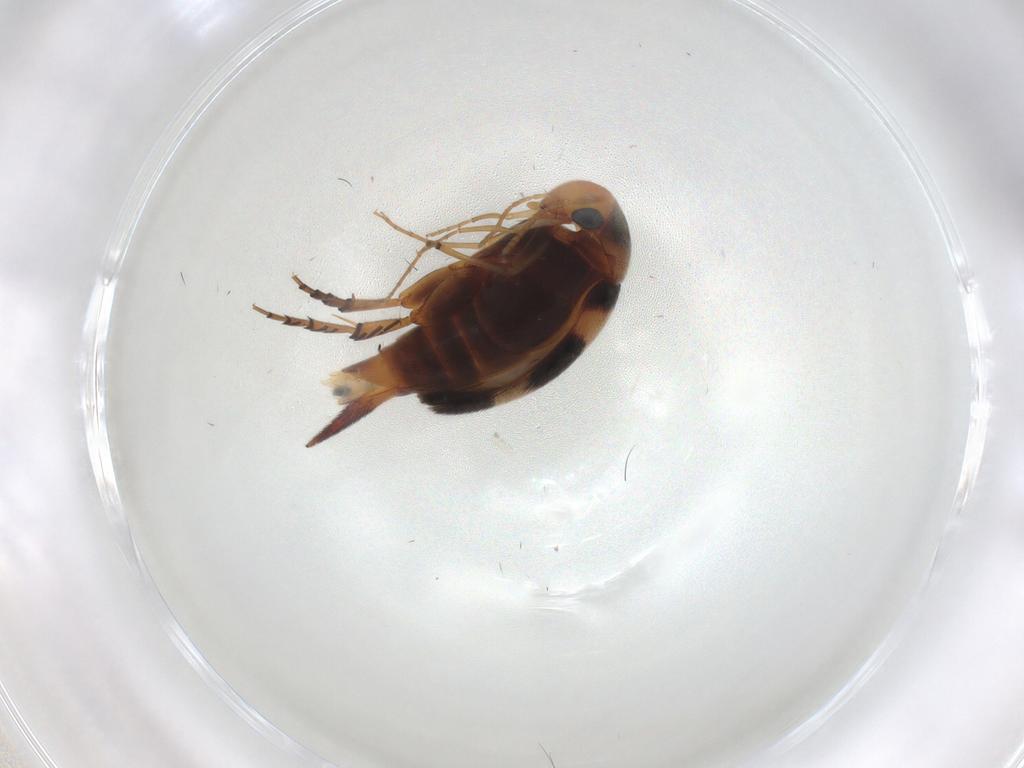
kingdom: Animalia
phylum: Arthropoda
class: Insecta
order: Coleoptera
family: Mordellidae
